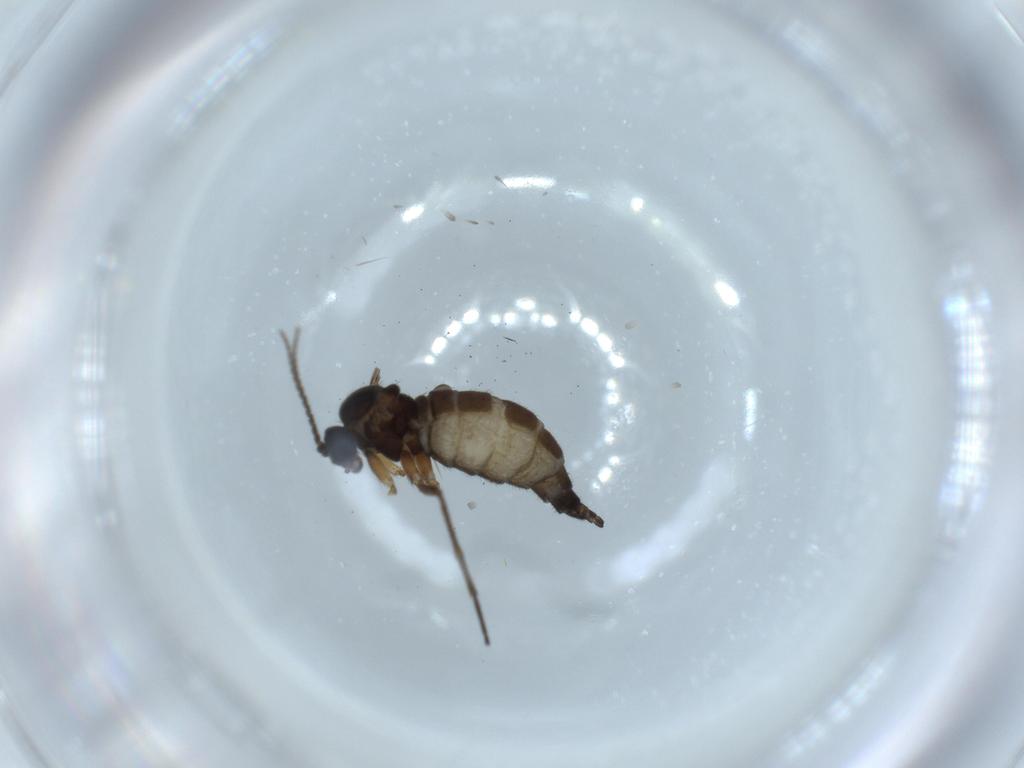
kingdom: Animalia
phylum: Arthropoda
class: Insecta
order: Diptera
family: Sciaridae
